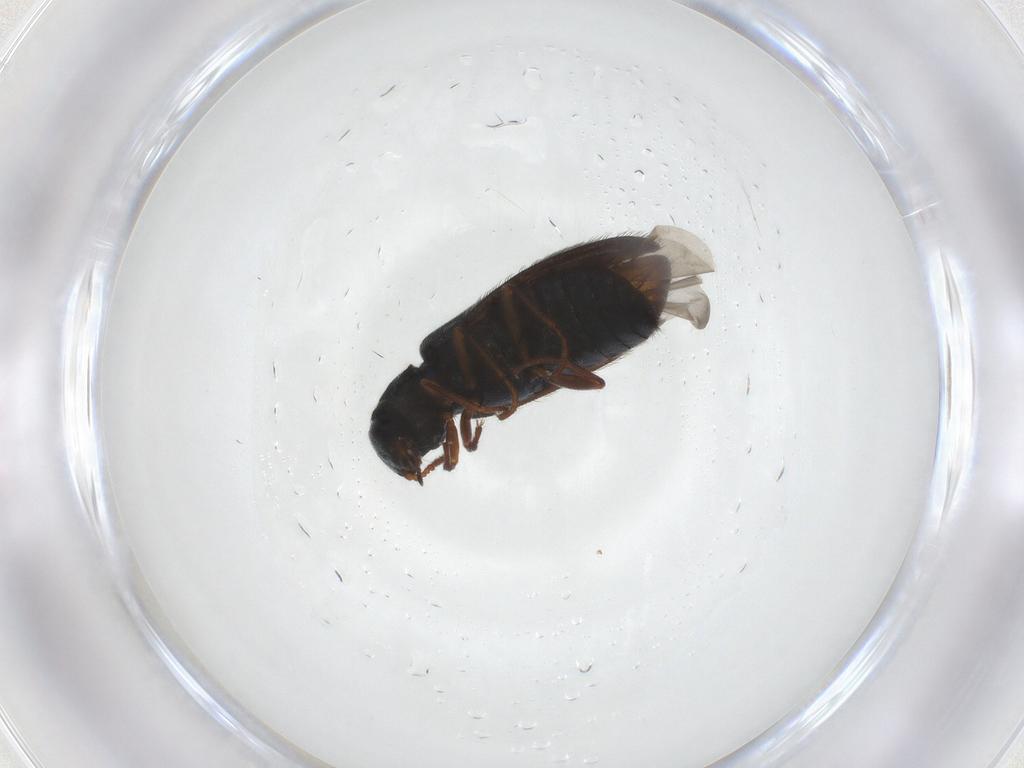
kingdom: Animalia
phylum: Arthropoda
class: Insecta
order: Coleoptera
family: Melyridae
